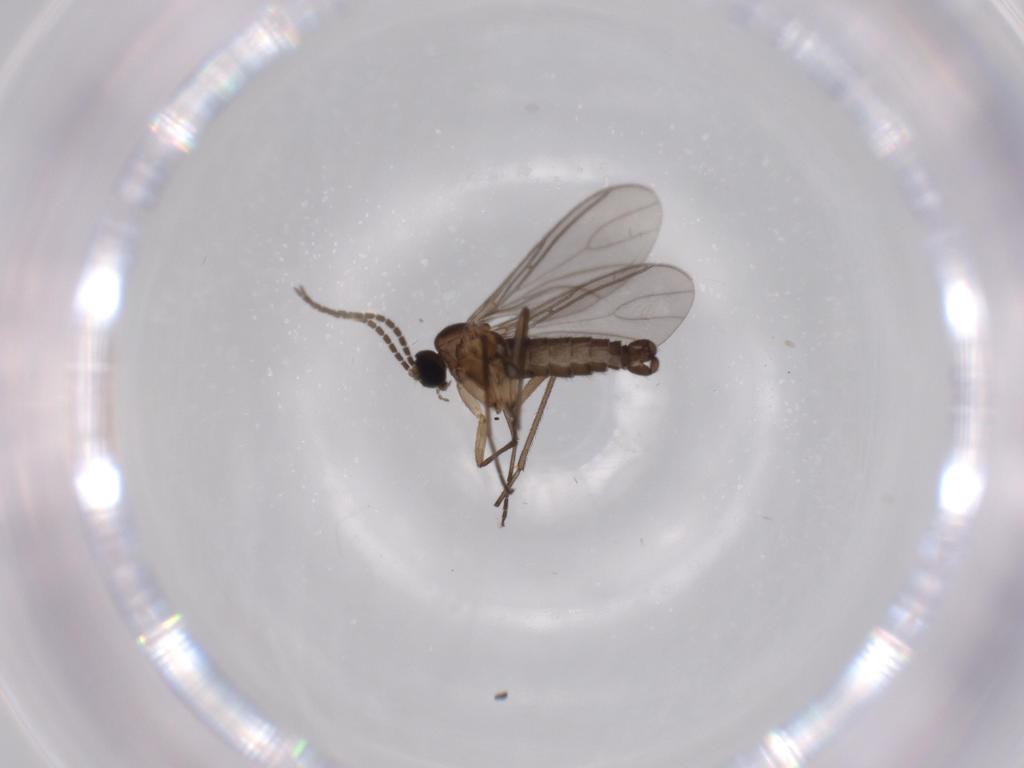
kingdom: Animalia
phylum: Arthropoda
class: Insecta
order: Diptera
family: Sciaridae
